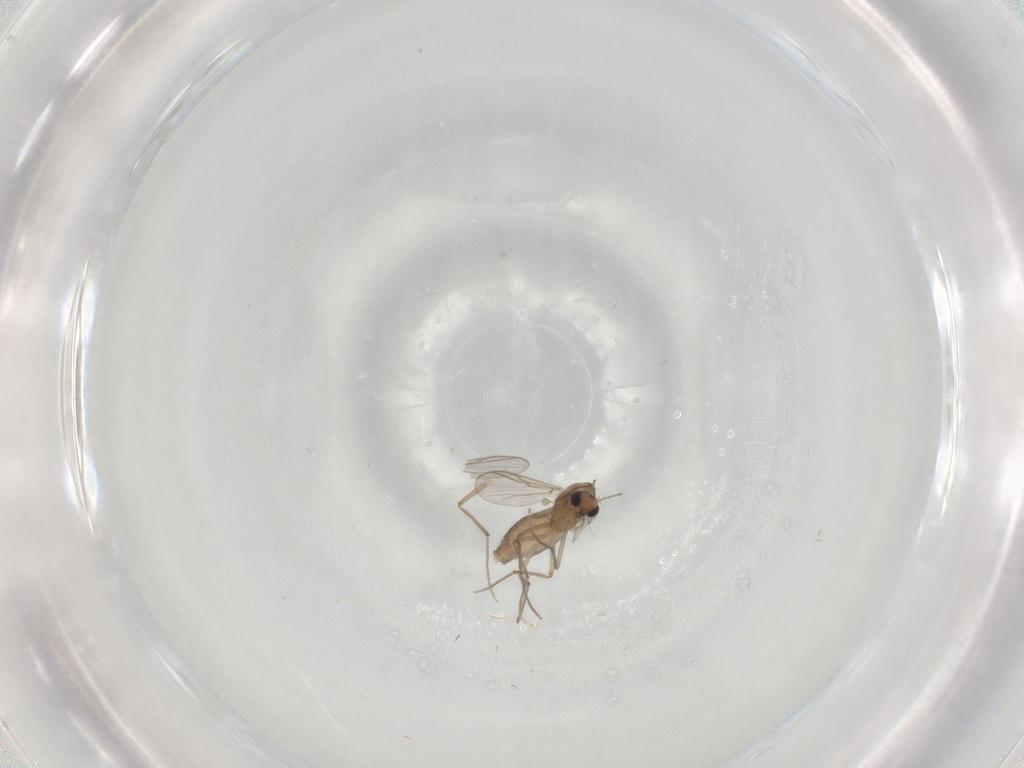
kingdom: Animalia
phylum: Arthropoda
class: Insecta
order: Diptera
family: Chironomidae
